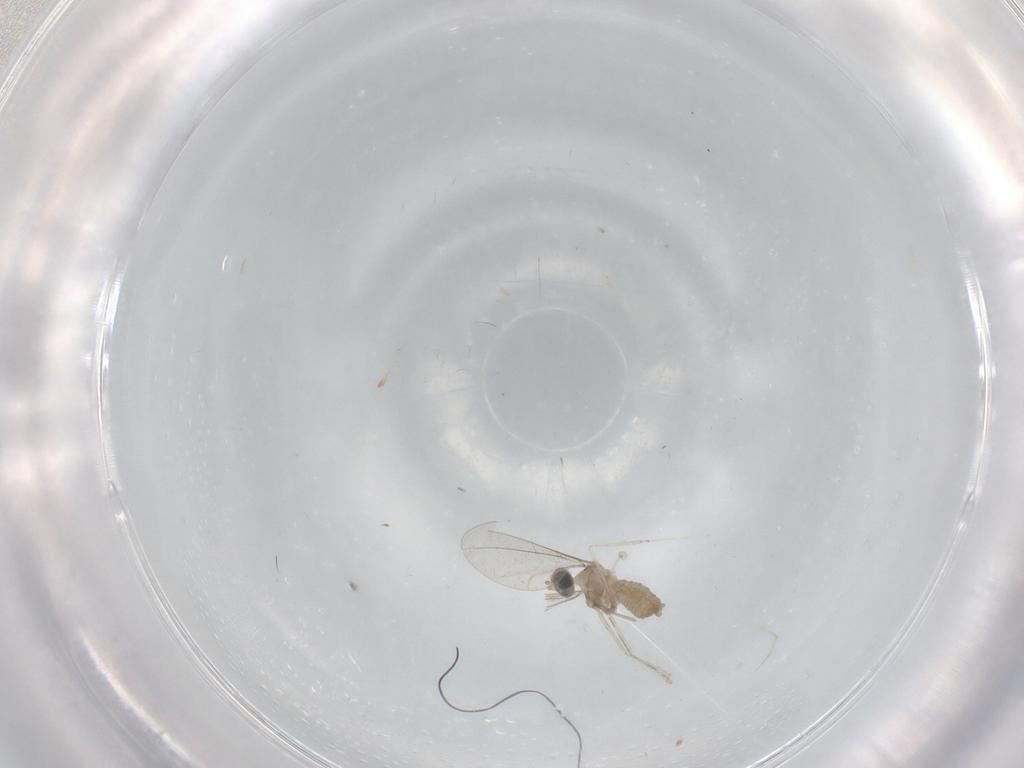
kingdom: Animalia
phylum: Arthropoda
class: Insecta
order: Diptera
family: Cecidomyiidae
